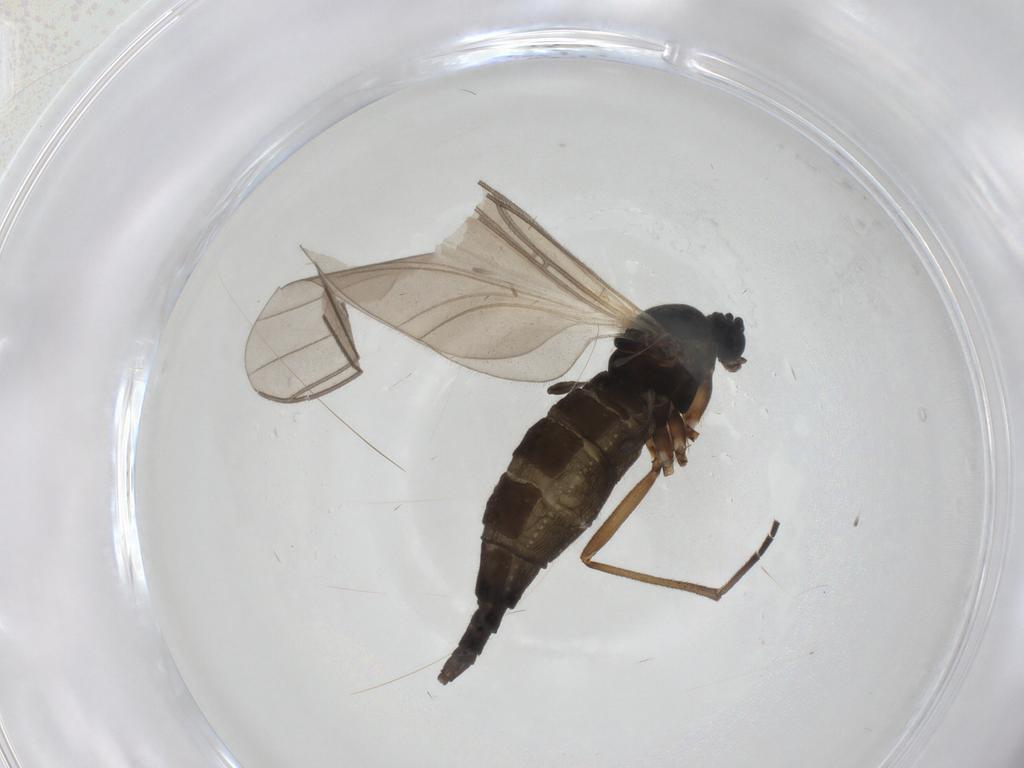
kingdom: Animalia
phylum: Arthropoda
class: Insecta
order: Diptera
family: Sciaridae
